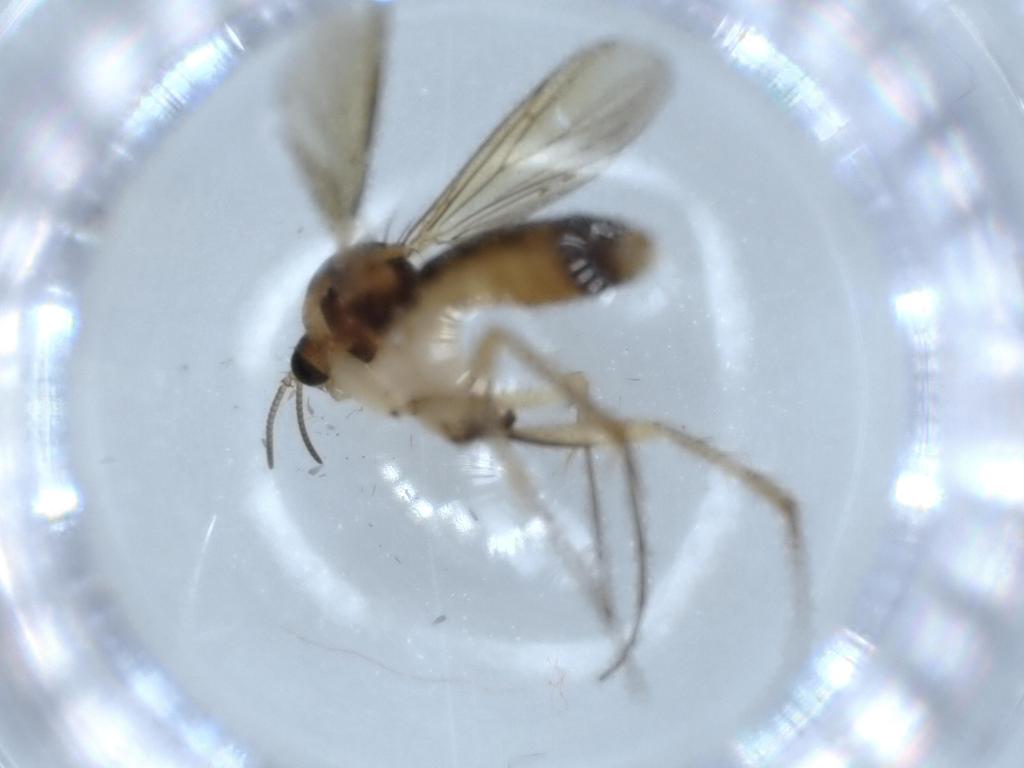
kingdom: Animalia
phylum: Arthropoda
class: Insecta
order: Diptera
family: Mycetophilidae
